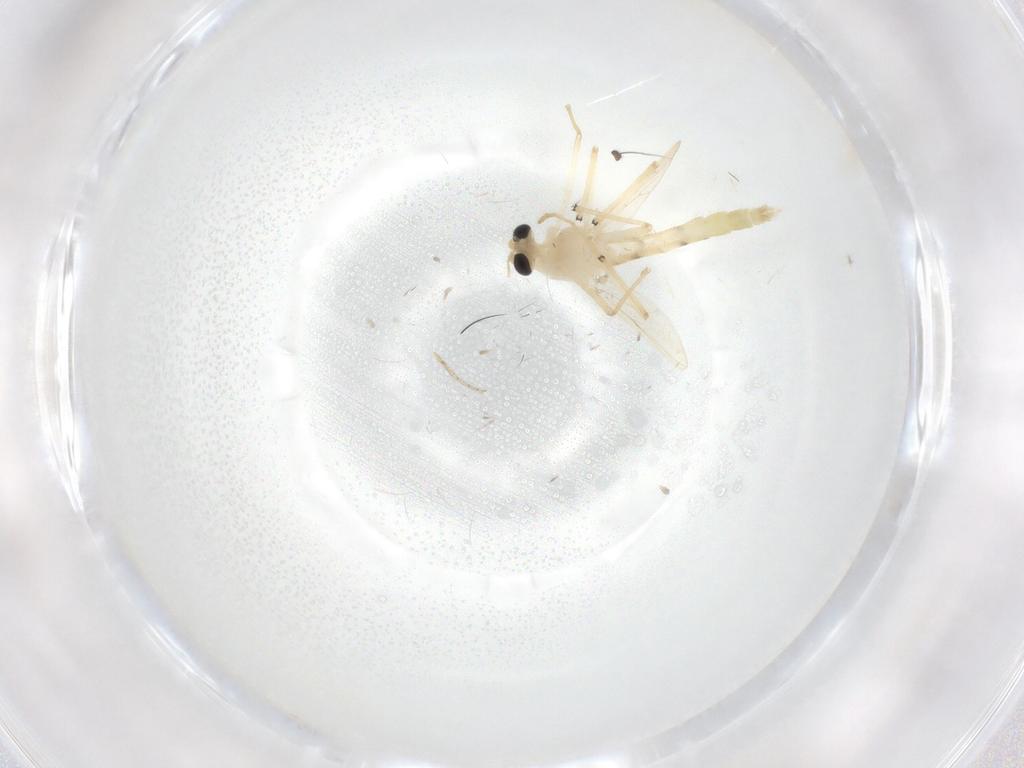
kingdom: Animalia
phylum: Arthropoda
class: Insecta
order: Diptera
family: Chironomidae
